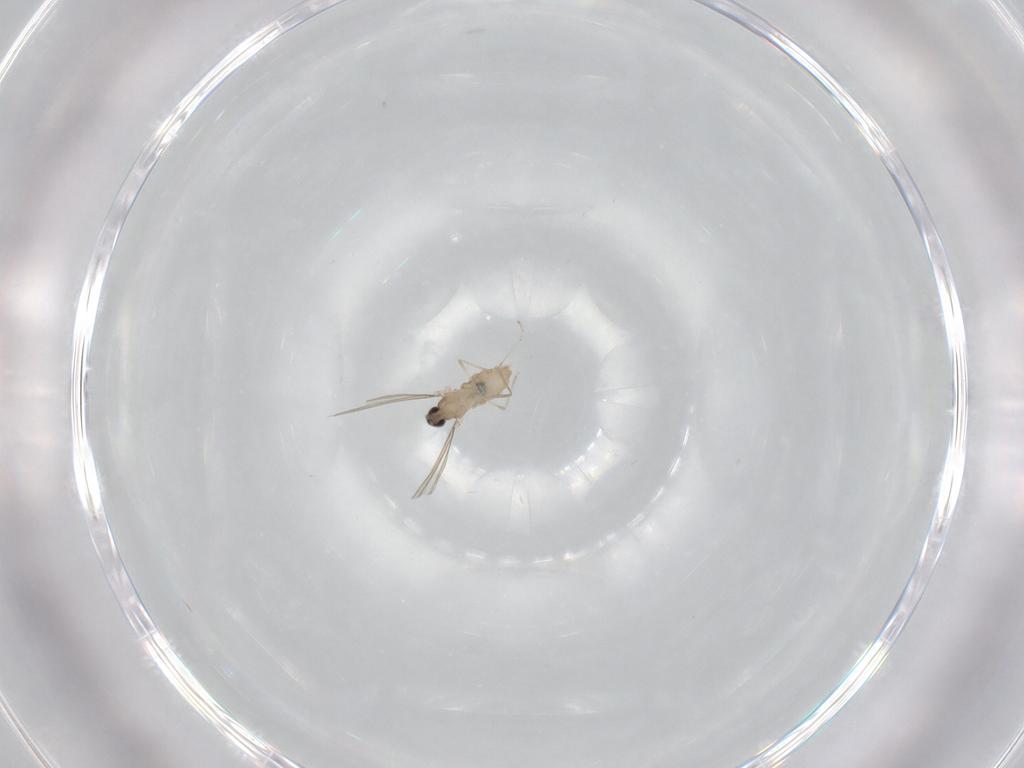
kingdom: Animalia
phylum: Arthropoda
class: Insecta
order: Diptera
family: Cecidomyiidae
